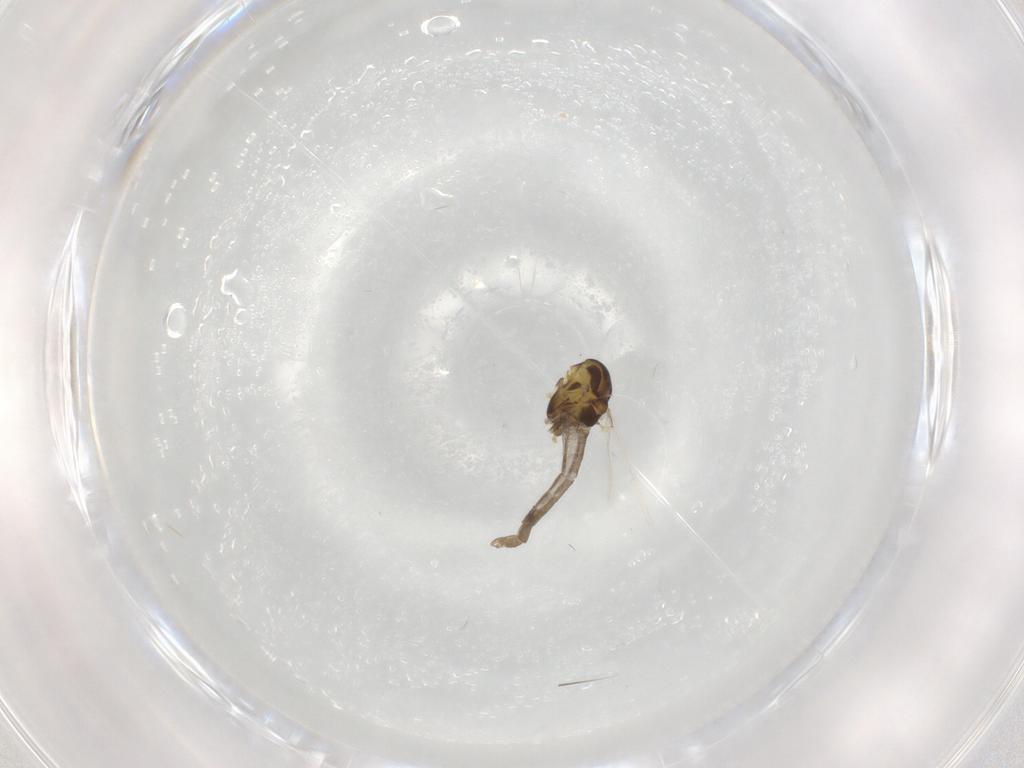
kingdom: Animalia
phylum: Arthropoda
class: Insecta
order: Diptera
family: Chironomidae
